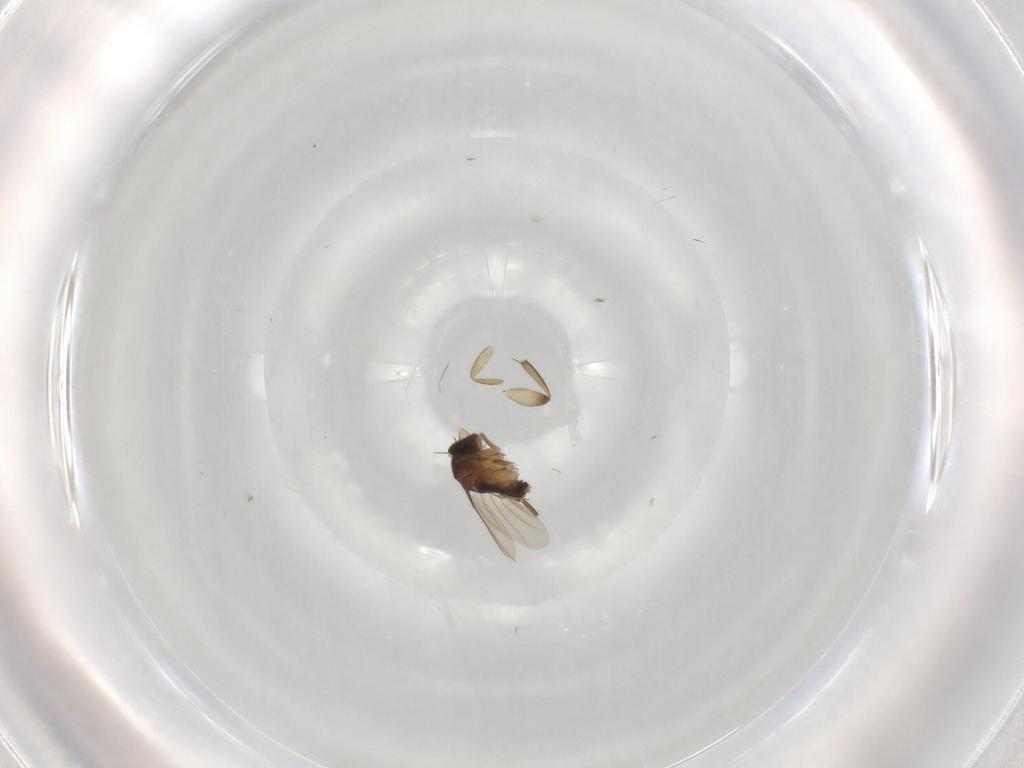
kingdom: Animalia
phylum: Arthropoda
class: Insecta
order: Diptera
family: Phoridae
